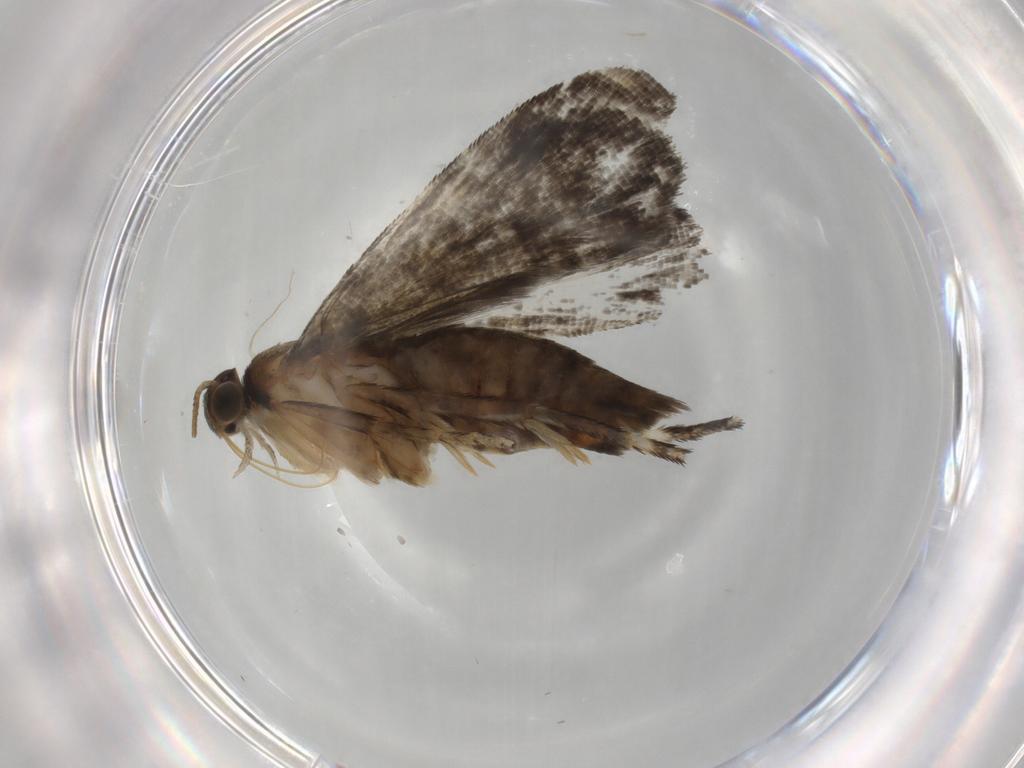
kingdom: Animalia
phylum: Arthropoda
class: Insecta
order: Lepidoptera
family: Glyphipterigidae
